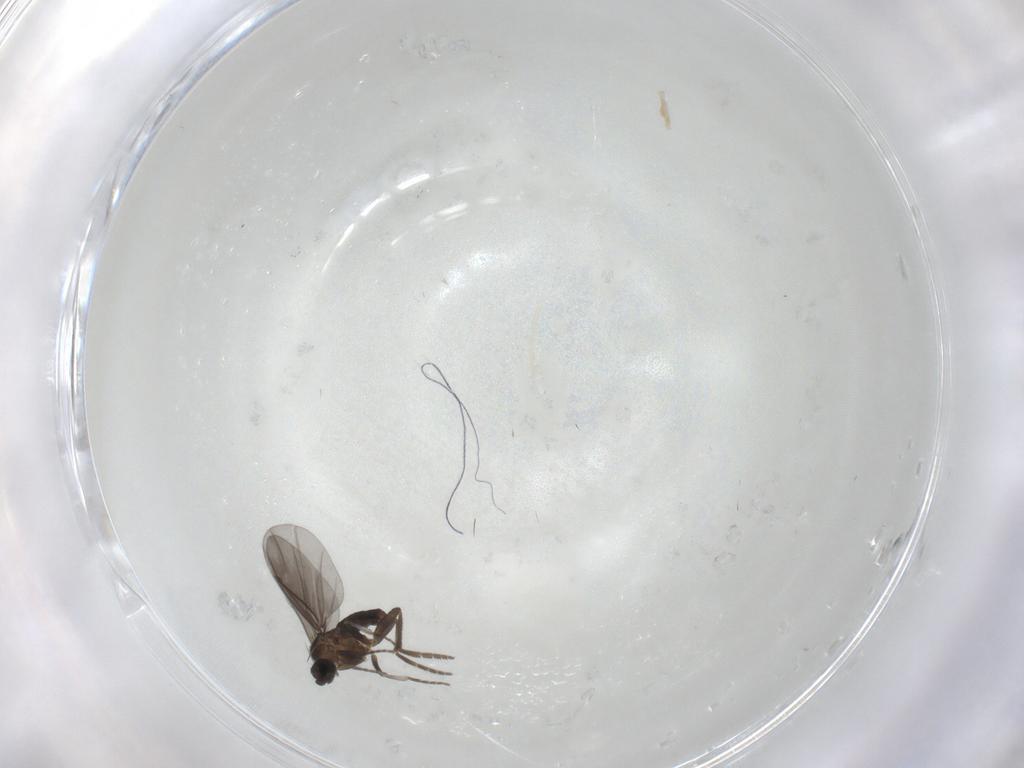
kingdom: Animalia
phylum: Arthropoda
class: Insecta
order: Diptera
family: Phoridae
